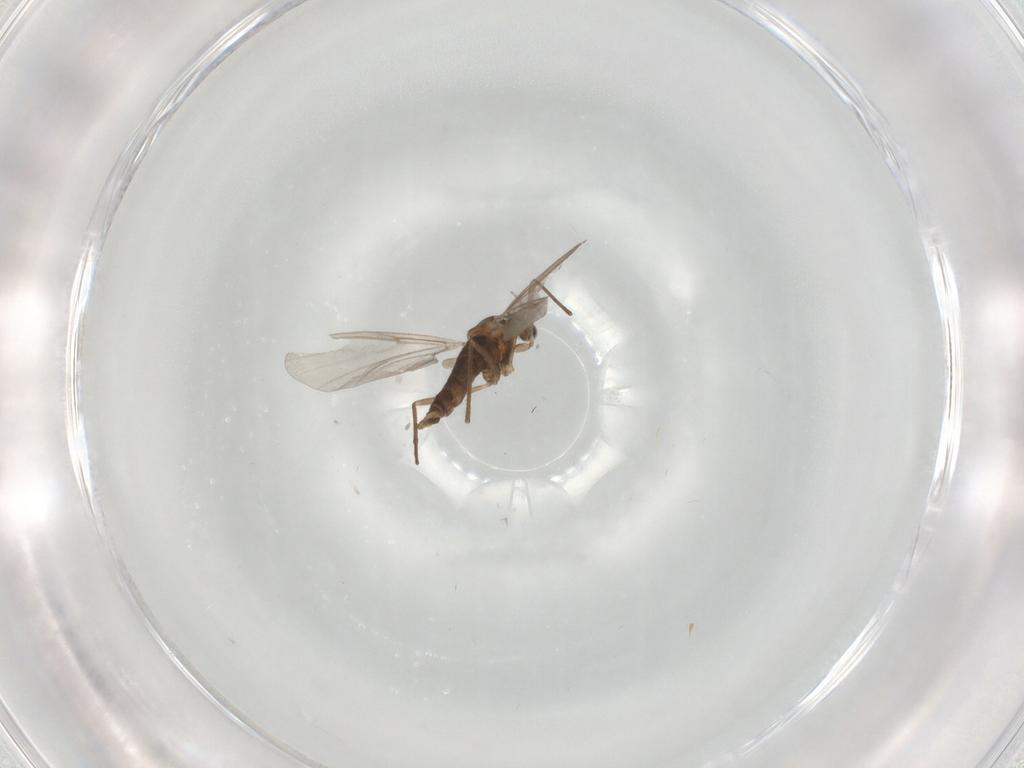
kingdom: Animalia
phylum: Arthropoda
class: Insecta
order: Diptera
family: Cecidomyiidae
